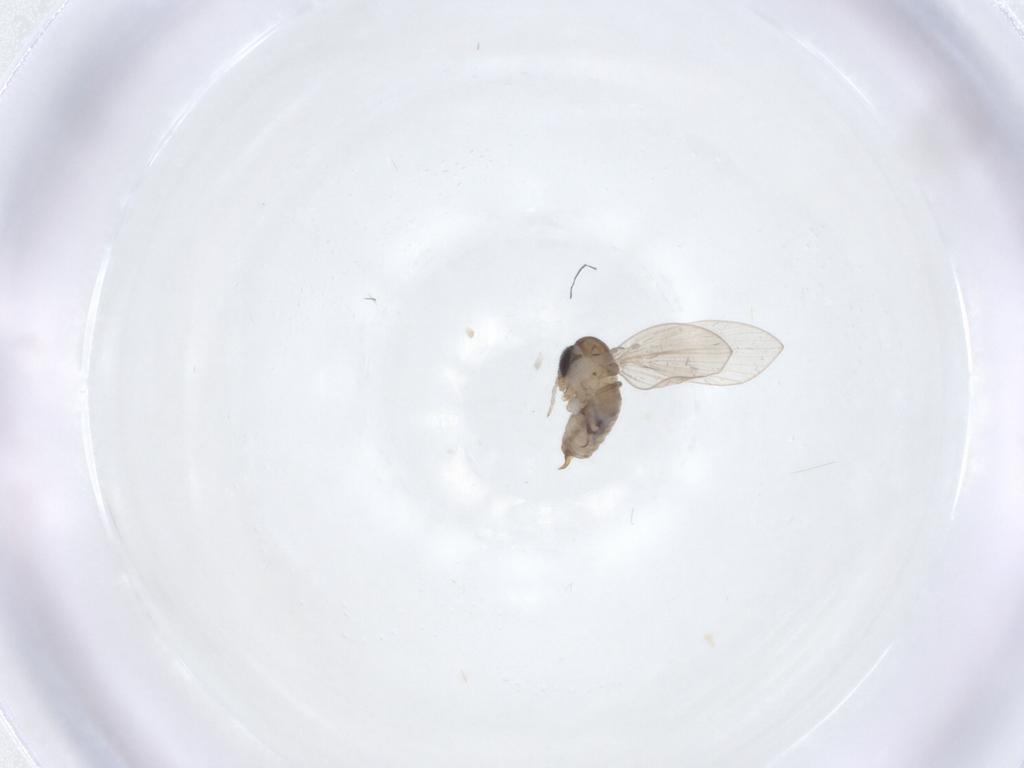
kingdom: Animalia
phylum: Arthropoda
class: Insecta
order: Diptera
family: Psychodidae
